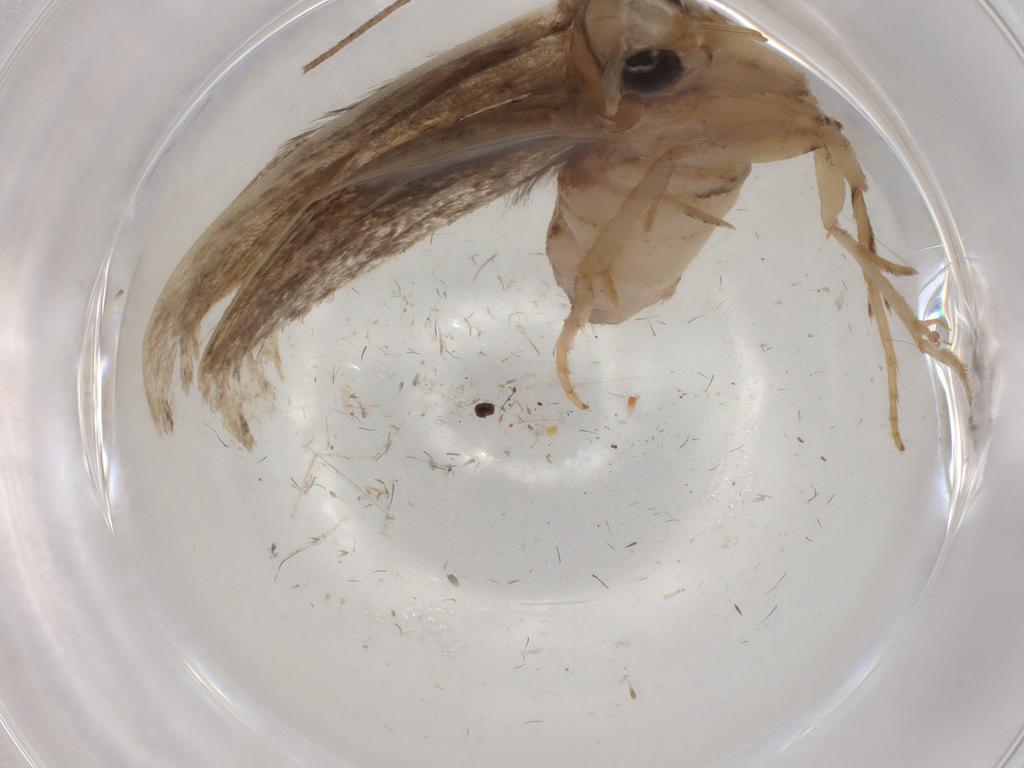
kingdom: Animalia
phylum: Arthropoda
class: Insecta
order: Lepidoptera
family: Yponomeutidae
